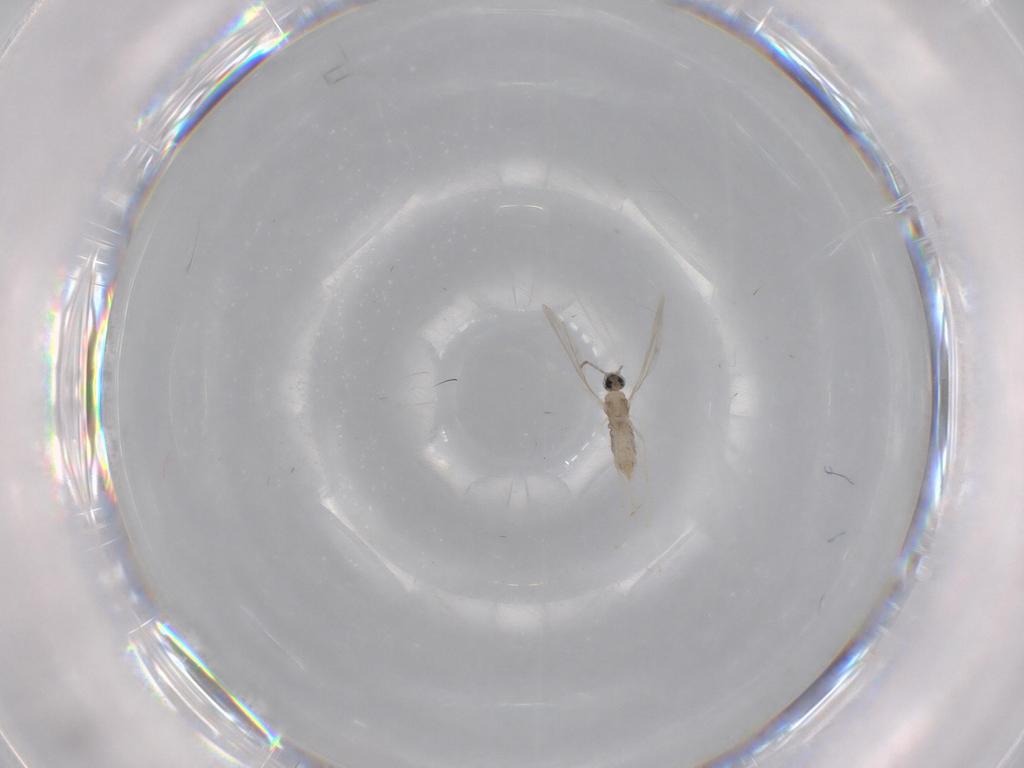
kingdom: Animalia
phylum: Arthropoda
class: Insecta
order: Diptera
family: Cecidomyiidae
